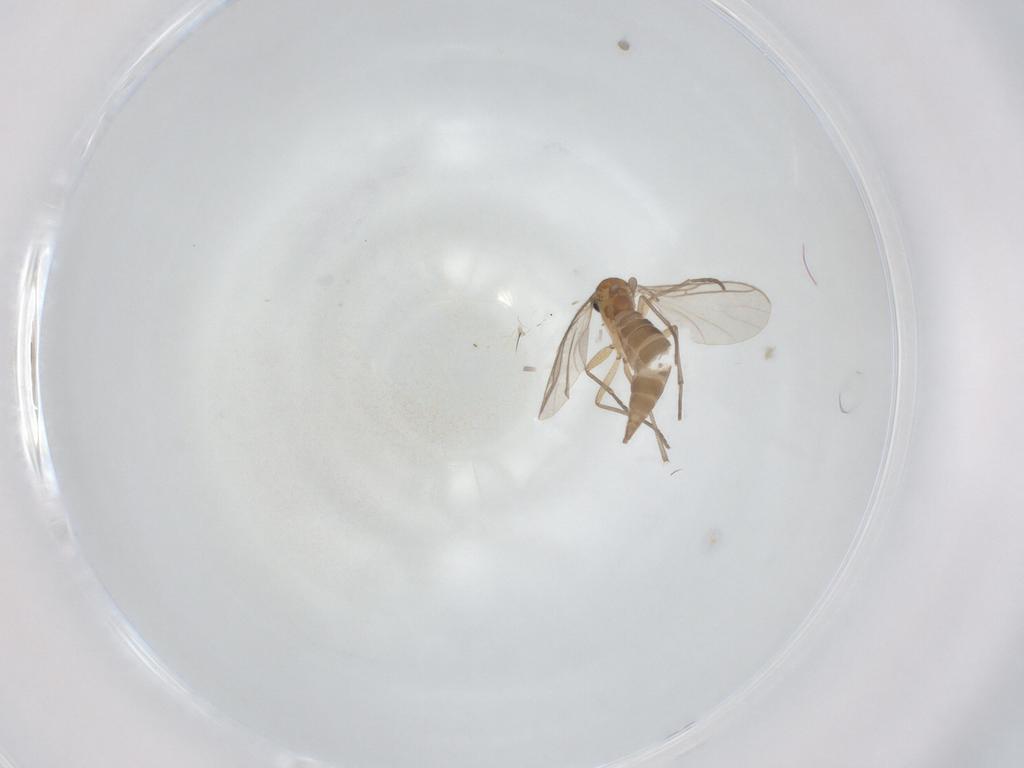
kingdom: Animalia
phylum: Arthropoda
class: Insecta
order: Diptera
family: Sciaridae
